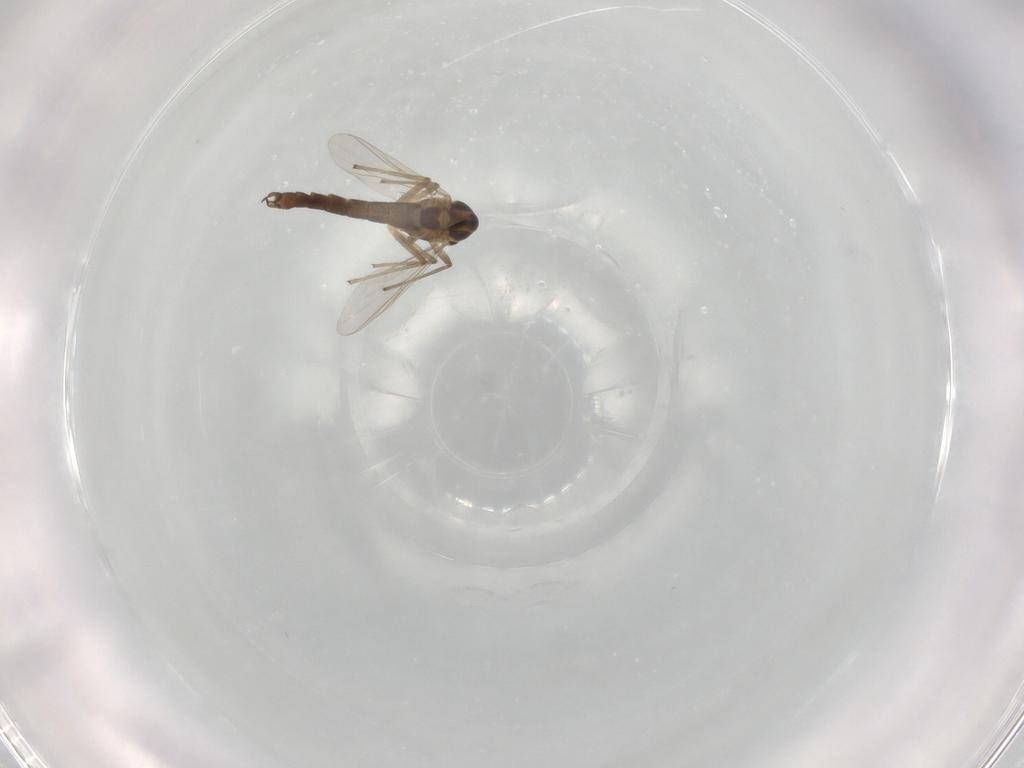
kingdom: Animalia
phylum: Arthropoda
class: Insecta
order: Diptera
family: Chironomidae
